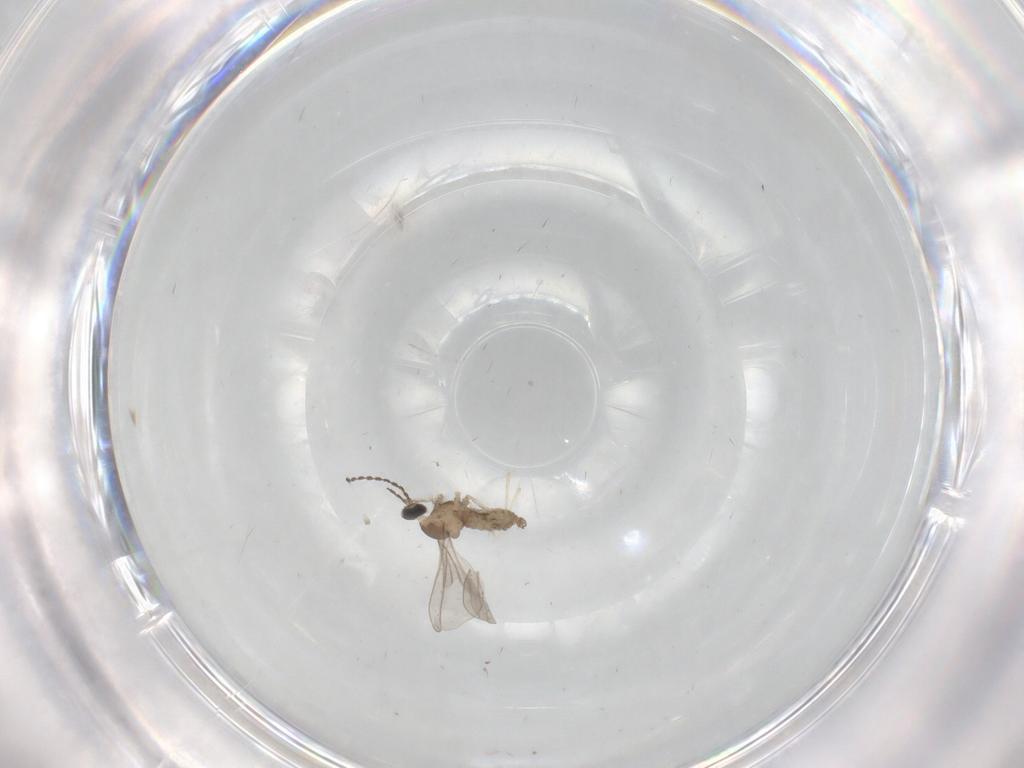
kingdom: Animalia
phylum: Arthropoda
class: Insecta
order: Diptera
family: Cecidomyiidae
